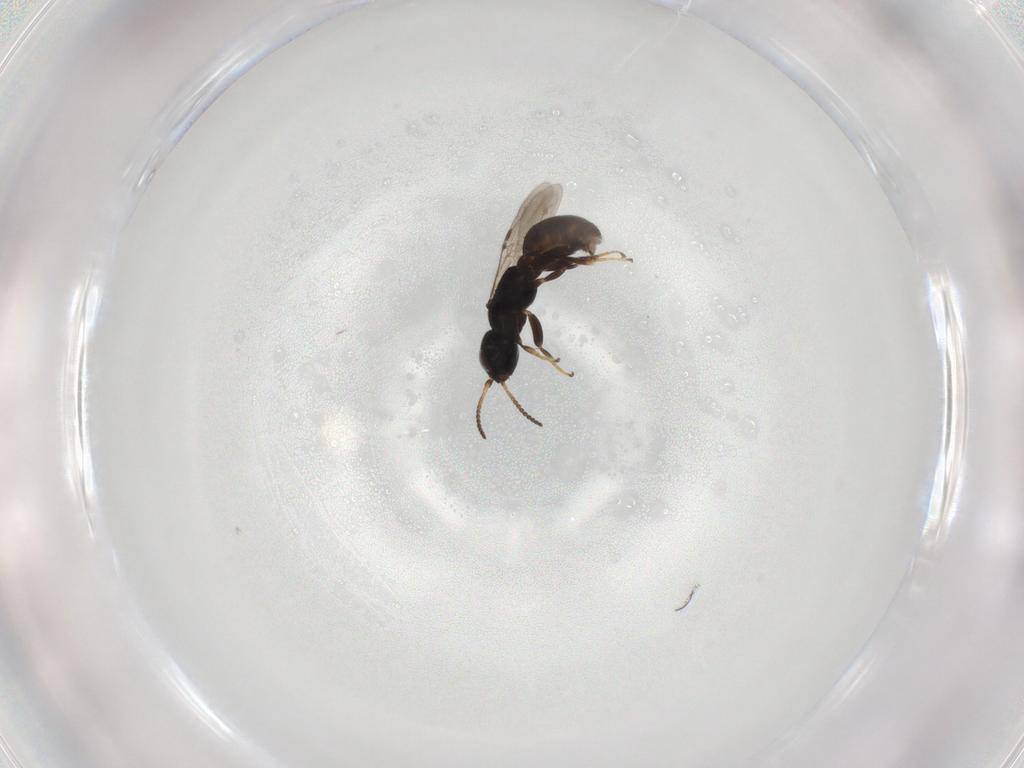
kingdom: Animalia
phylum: Arthropoda
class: Insecta
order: Hymenoptera
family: Bethylidae
